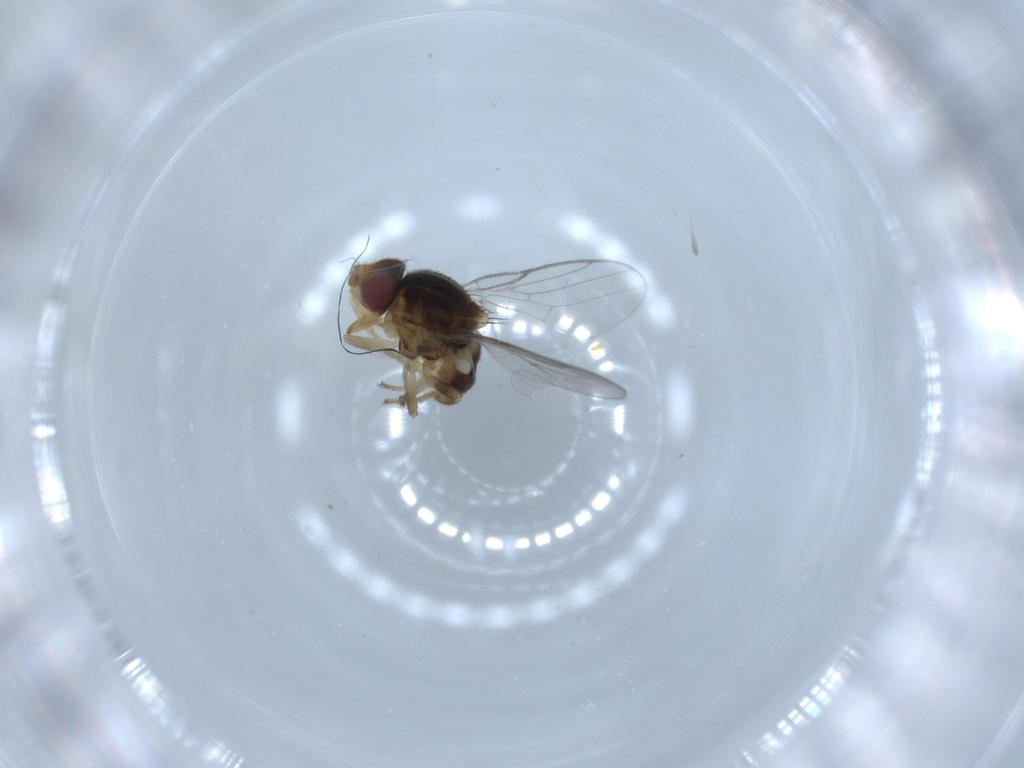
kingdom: Animalia
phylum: Arthropoda
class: Insecta
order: Diptera
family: Chloropidae
